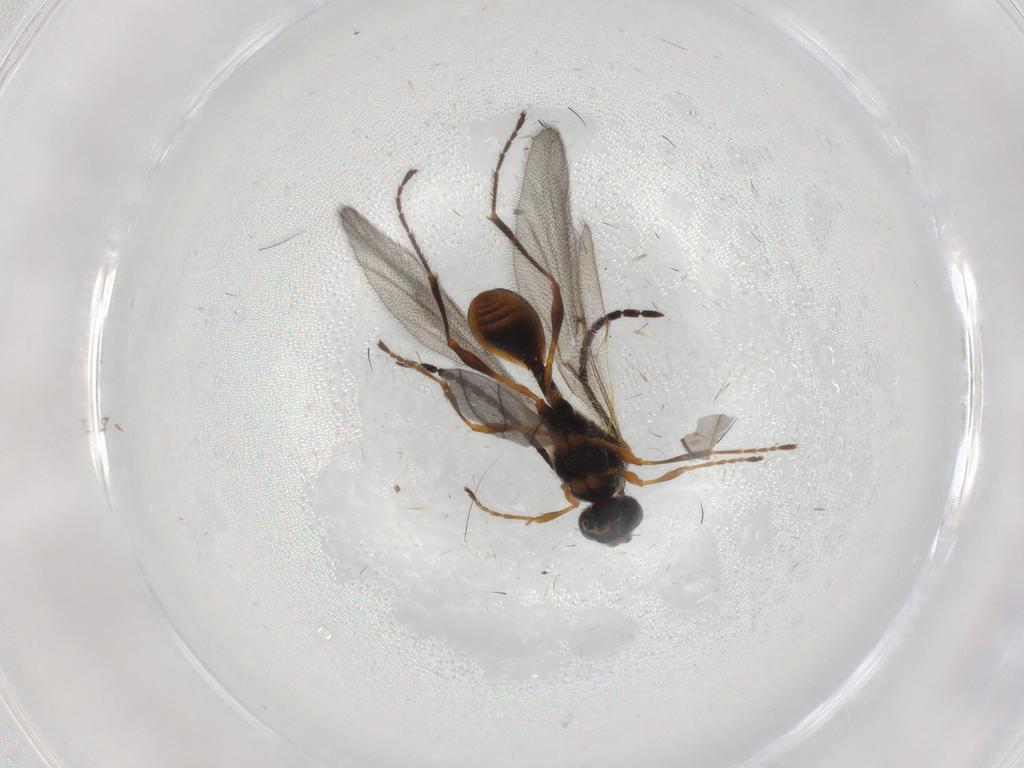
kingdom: Animalia
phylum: Arthropoda
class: Insecta
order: Hymenoptera
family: Diapriidae
